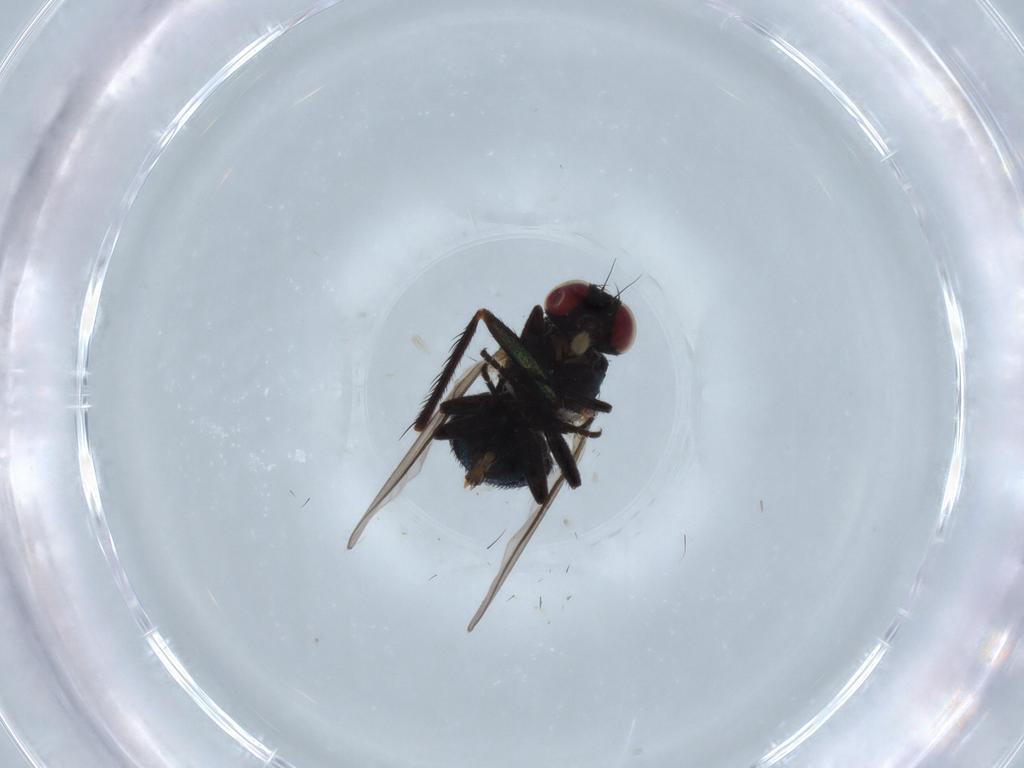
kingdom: Animalia
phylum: Arthropoda
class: Insecta
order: Diptera
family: Dolichopodidae
